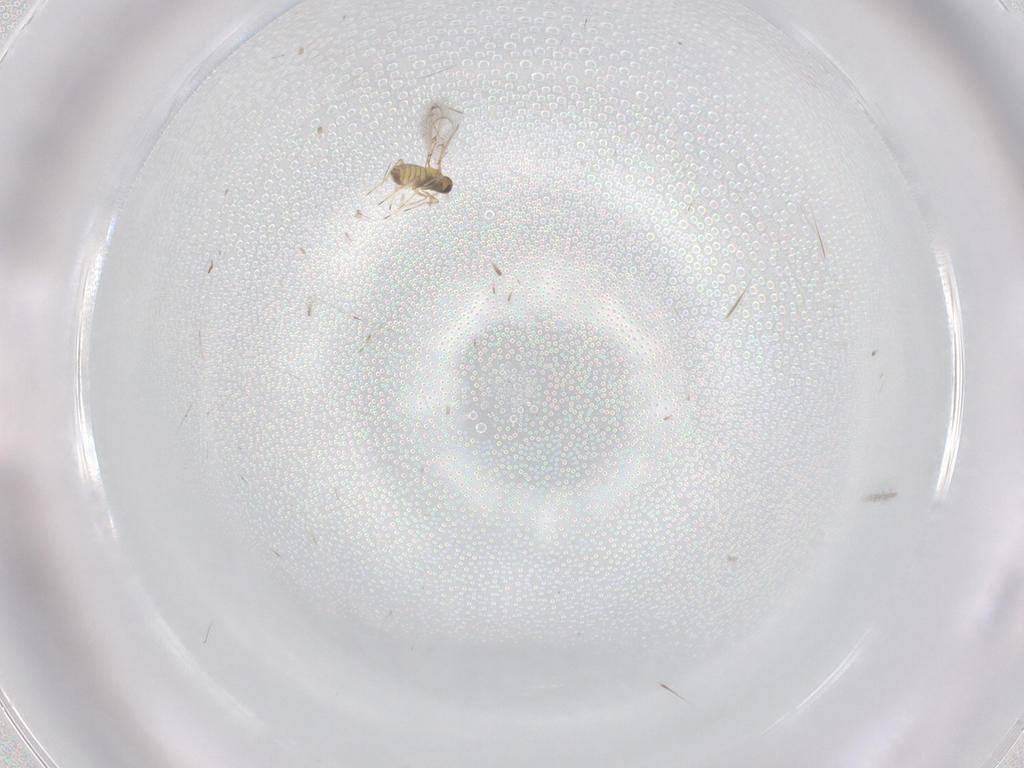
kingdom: Animalia
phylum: Arthropoda
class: Insecta
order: Hymenoptera
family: Trichogrammatidae
